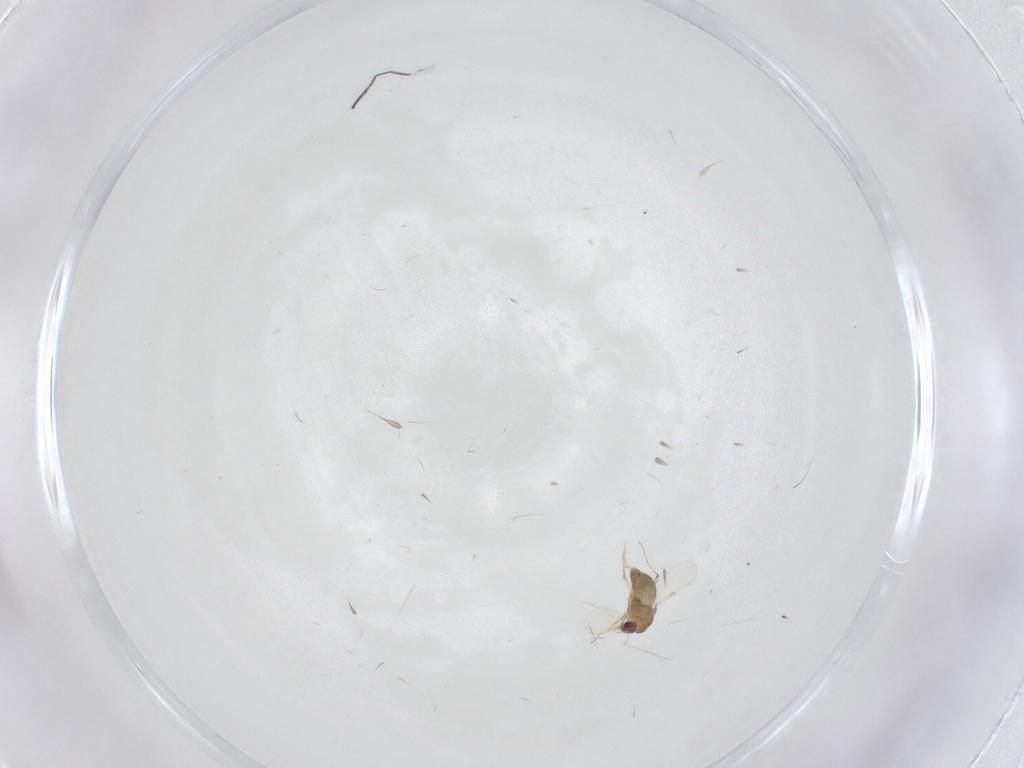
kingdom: Animalia
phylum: Arthropoda
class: Insecta
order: Diptera
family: Chironomidae
